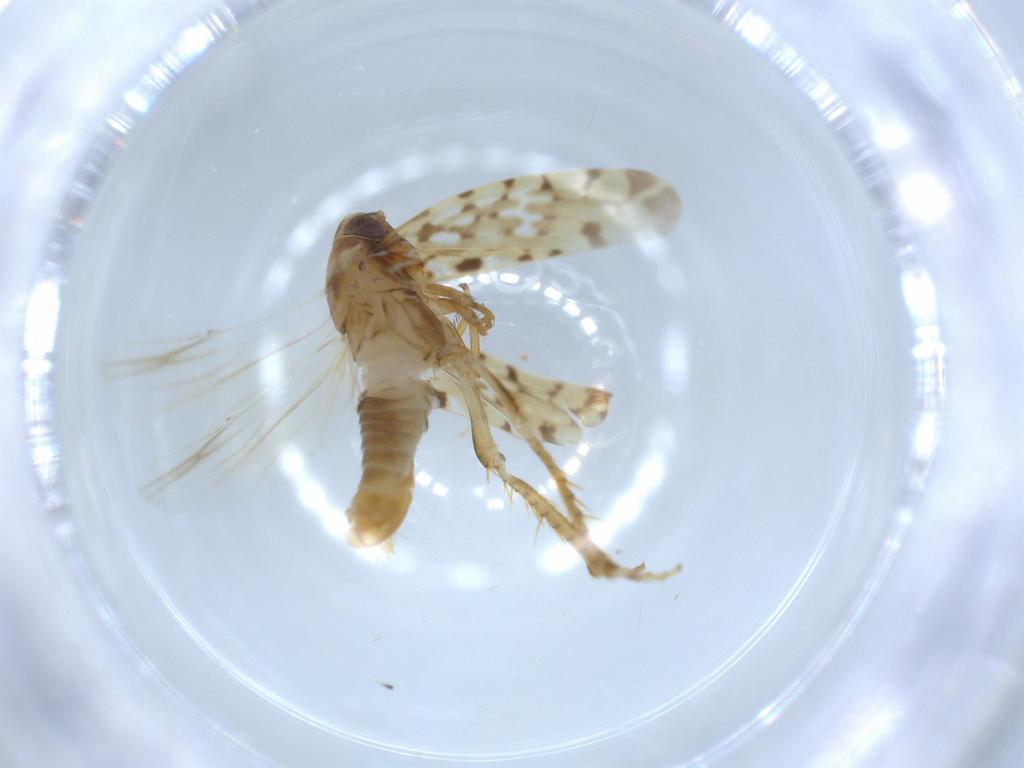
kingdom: Animalia
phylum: Arthropoda
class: Insecta
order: Hemiptera
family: Cicadellidae
